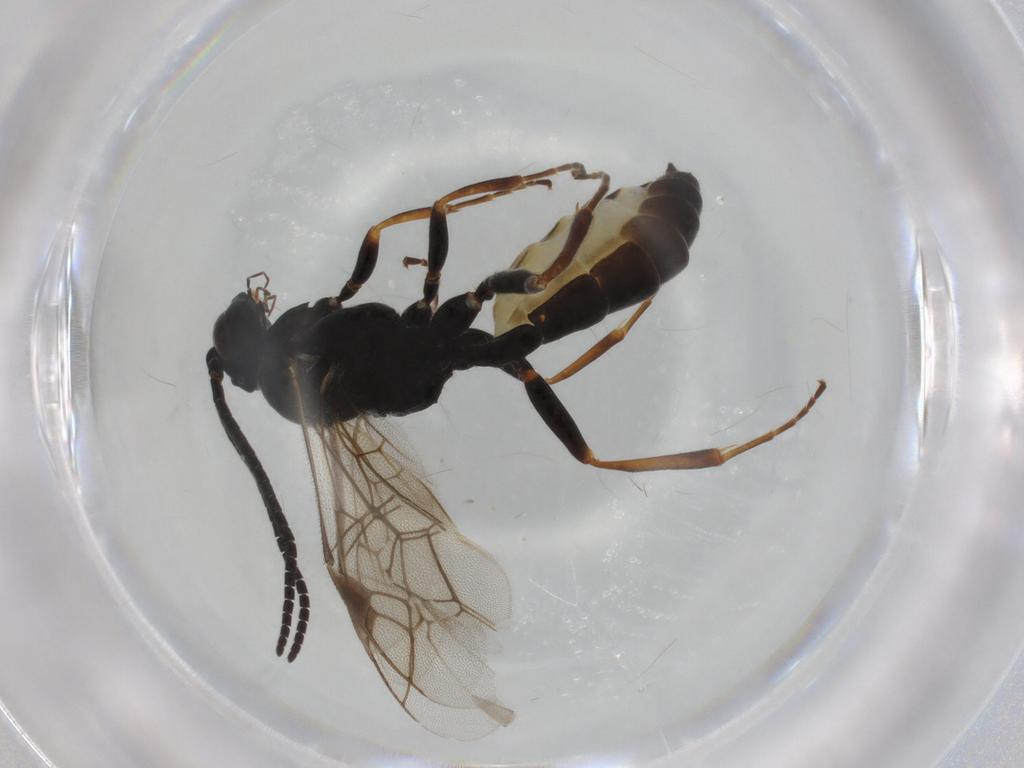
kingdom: Animalia
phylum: Arthropoda
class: Insecta
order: Hymenoptera
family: Ichneumonidae
